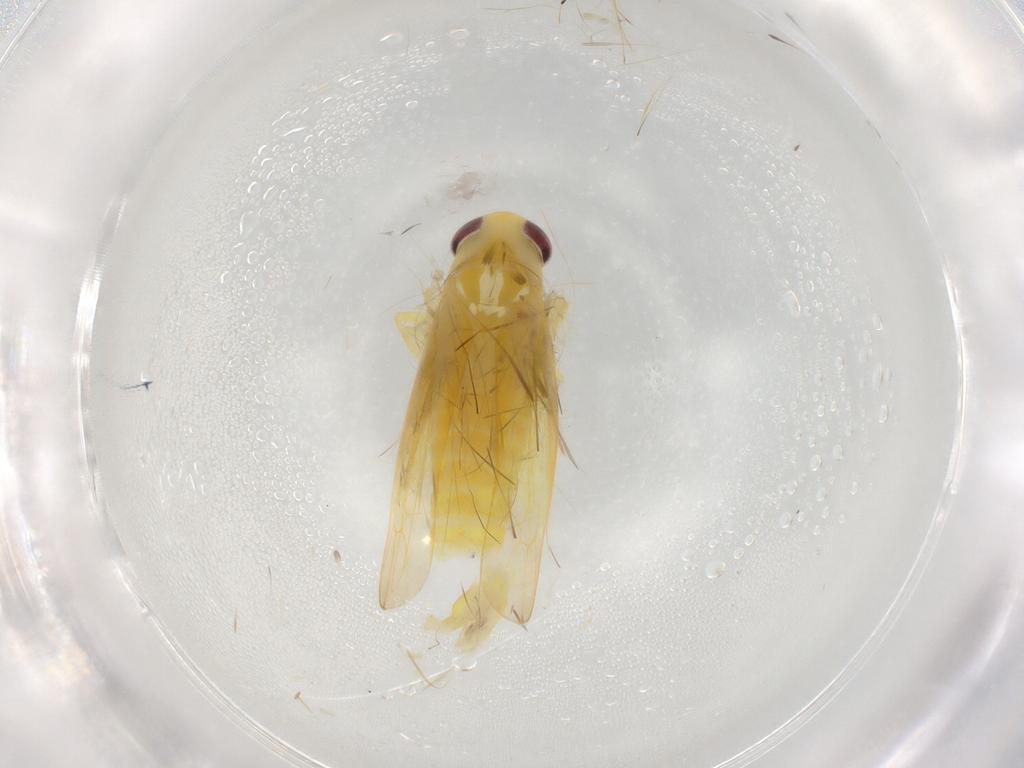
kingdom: Animalia
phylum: Arthropoda
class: Insecta
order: Hemiptera
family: Cicadellidae
